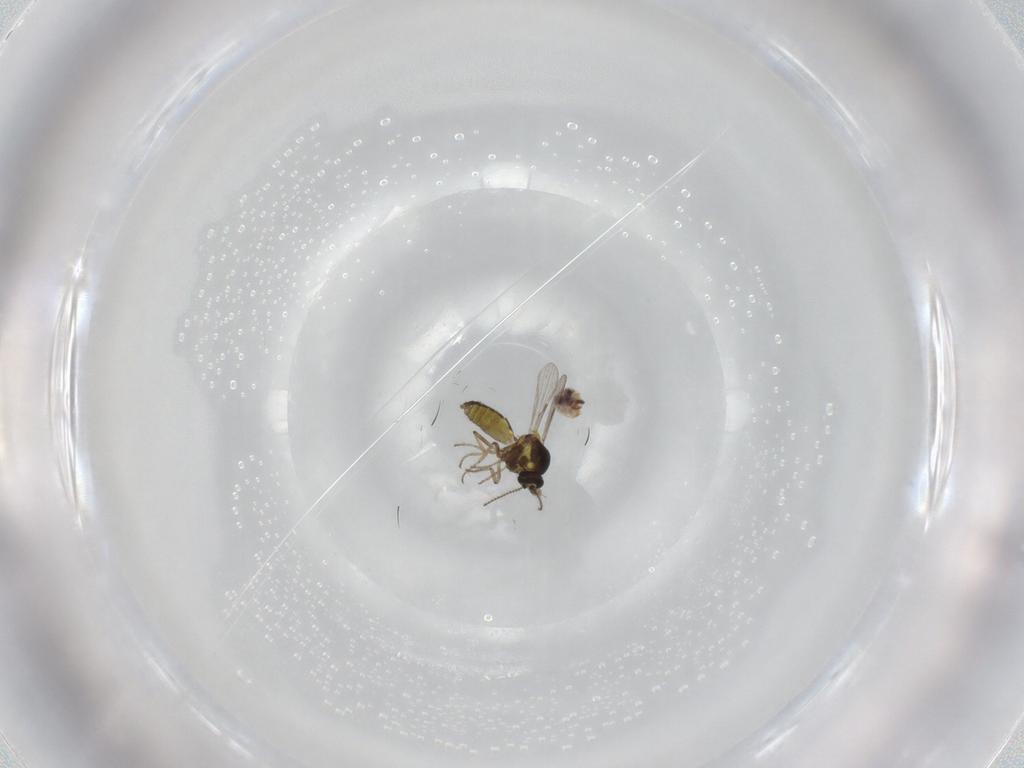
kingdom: Animalia
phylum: Arthropoda
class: Insecta
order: Diptera
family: Ceratopogonidae
